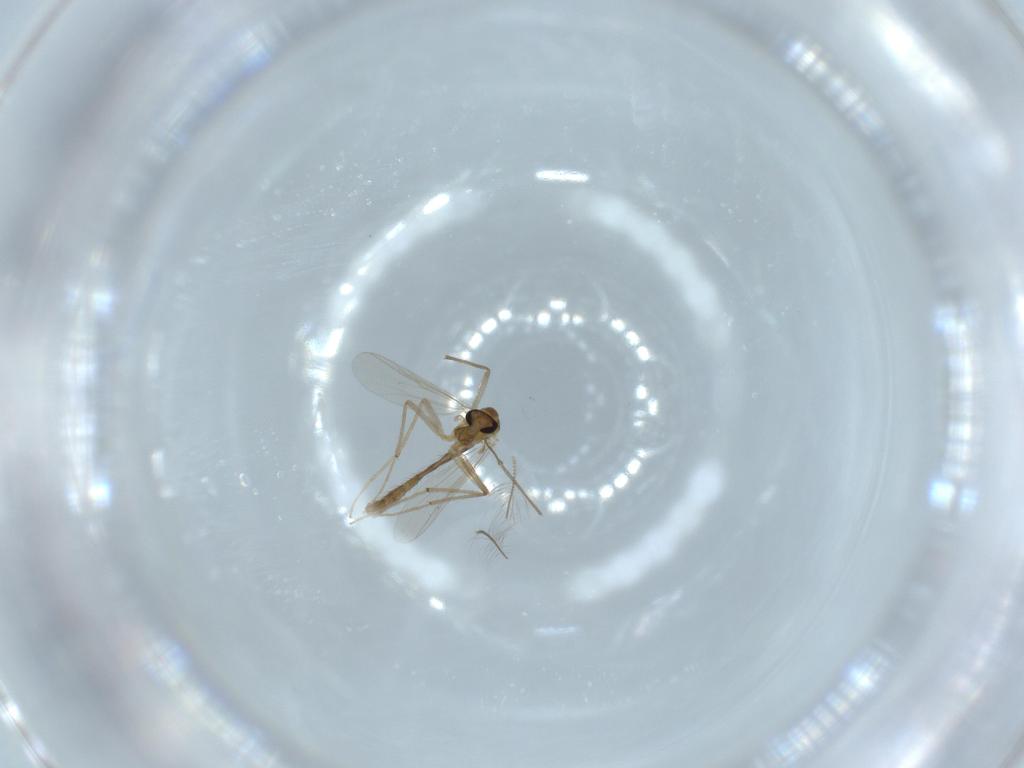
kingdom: Animalia
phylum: Arthropoda
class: Insecta
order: Diptera
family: Chironomidae
